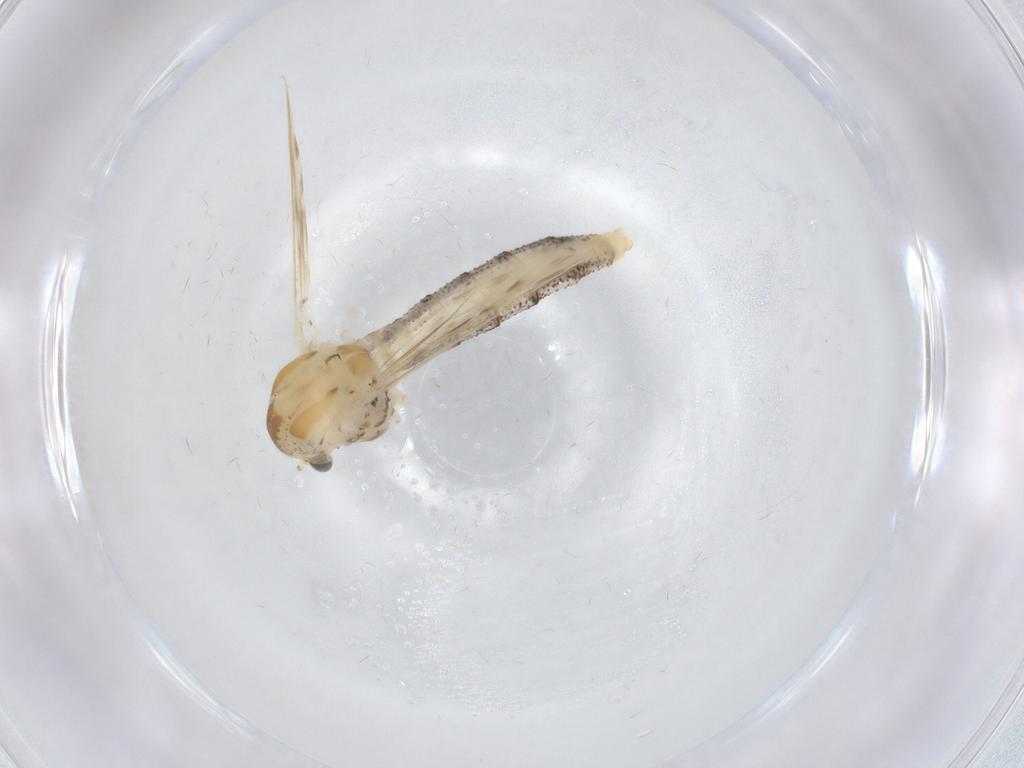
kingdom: Animalia
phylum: Arthropoda
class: Insecta
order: Diptera
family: Chaoboridae
